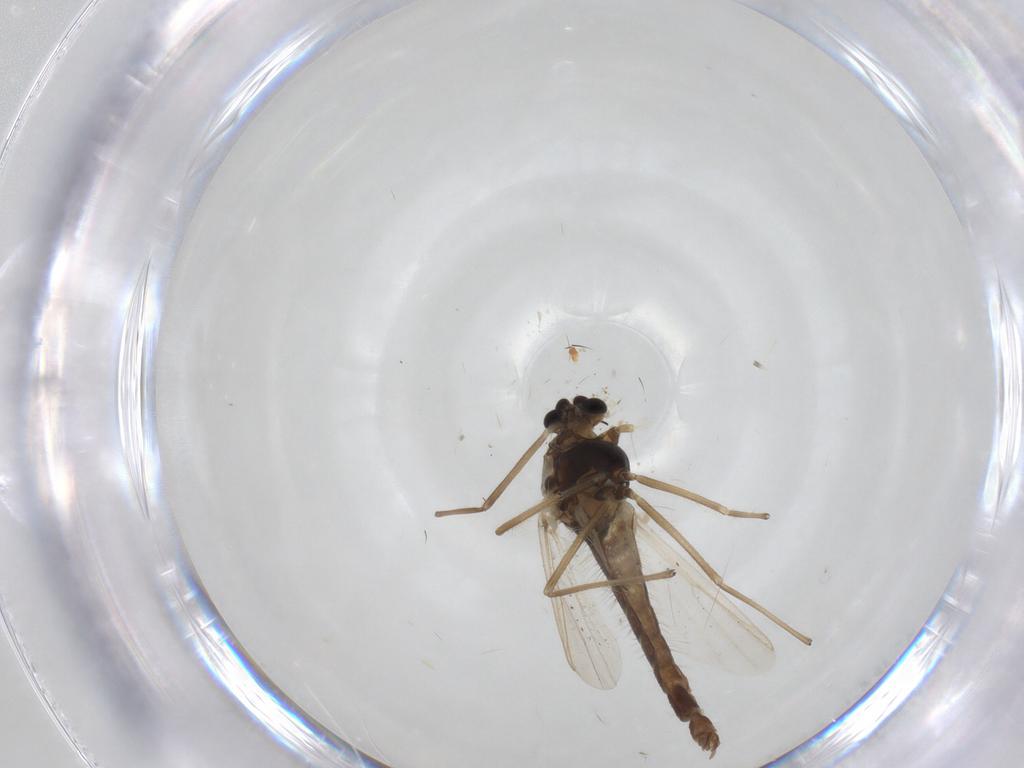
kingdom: Animalia
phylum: Arthropoda
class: Insecta
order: Diptera
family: Chironomidae
